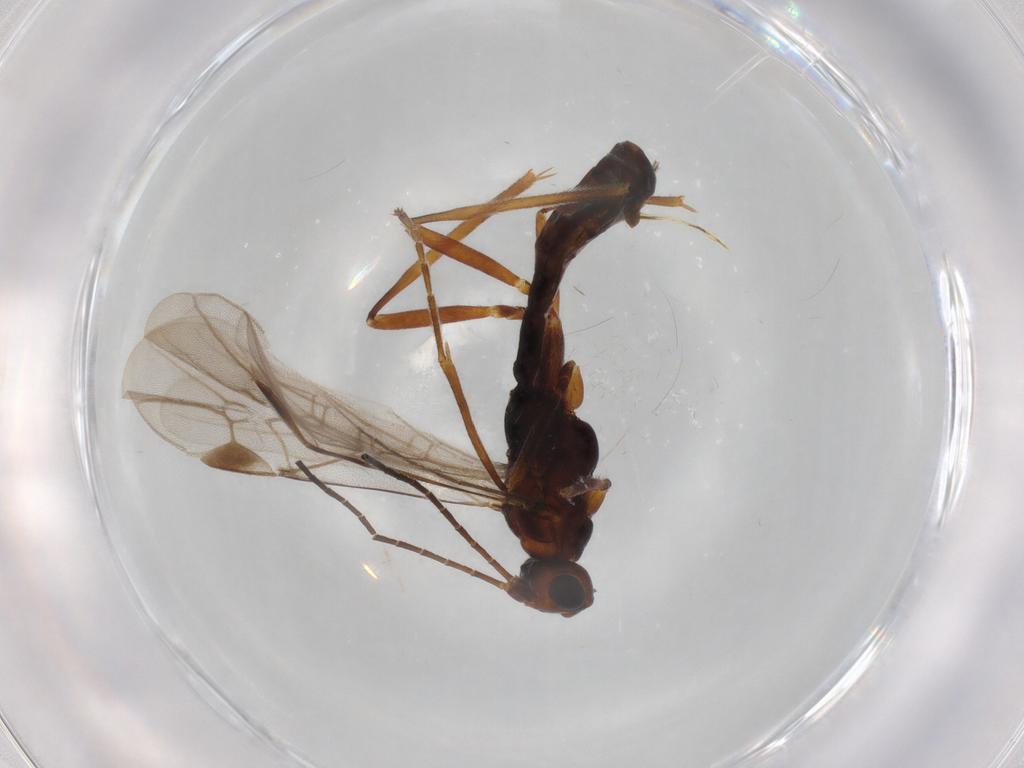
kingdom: Animalia
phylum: Arthropoda
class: Insecta
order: Hymenoptera
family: Braconidae
